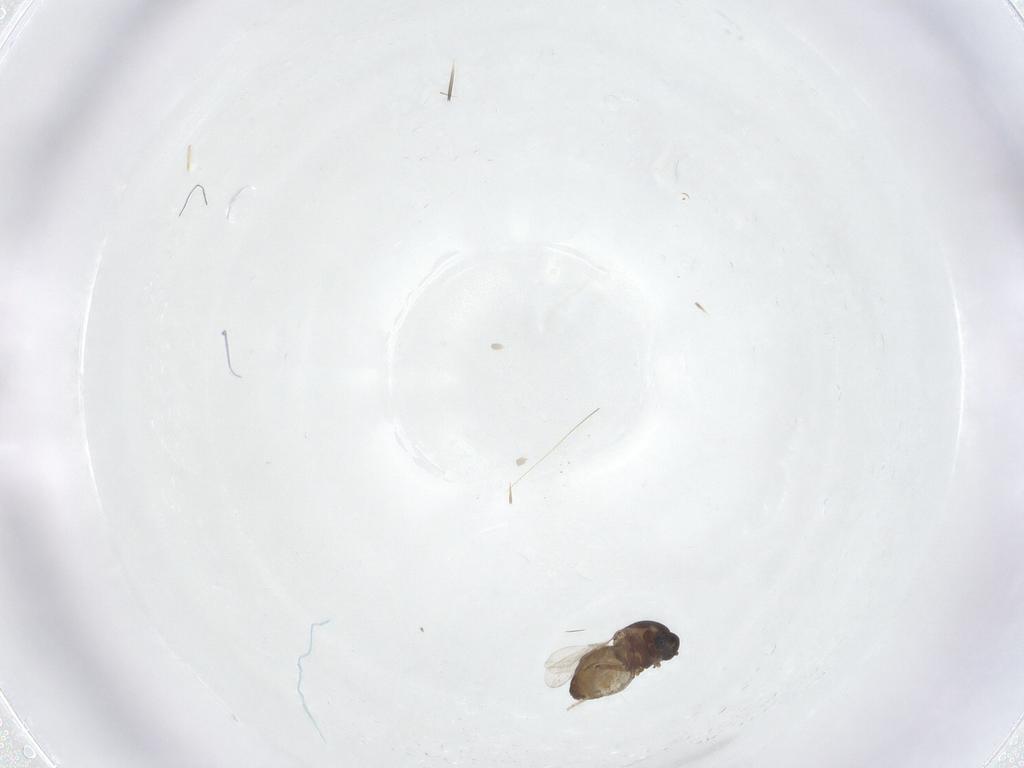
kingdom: Animalia
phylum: Arthropoda
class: Insecta
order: Diptera
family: Ceratopogonidae
